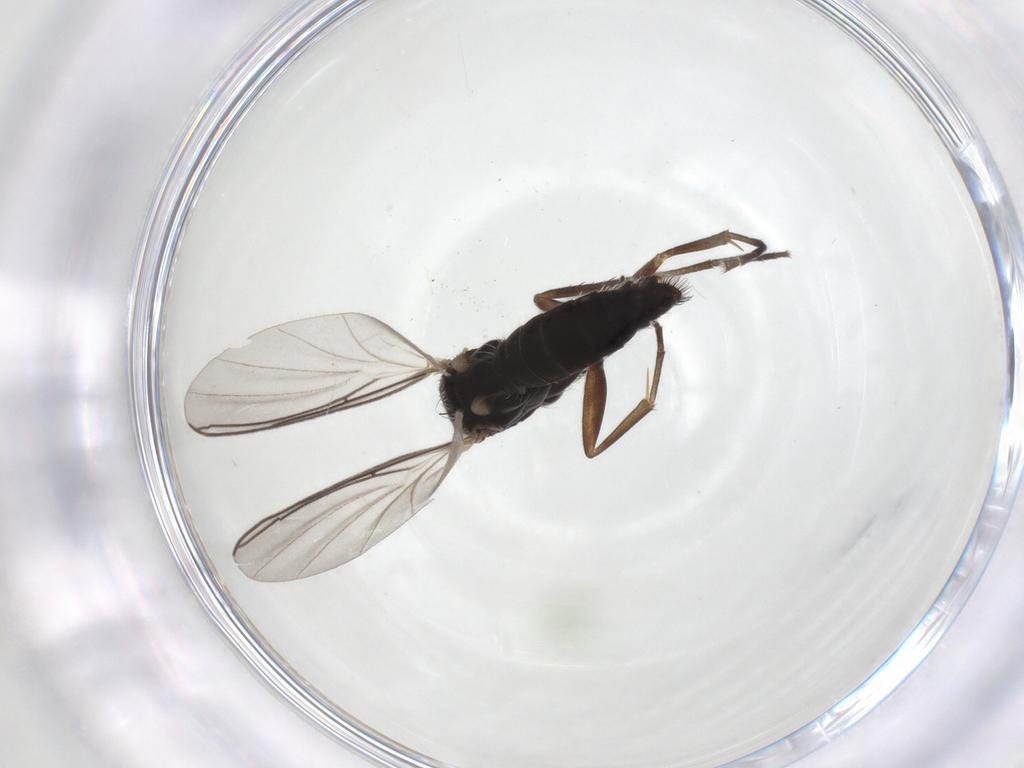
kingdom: Animalia
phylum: Arthropoda
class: Insecta
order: Diptera
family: Mycetophilidae
